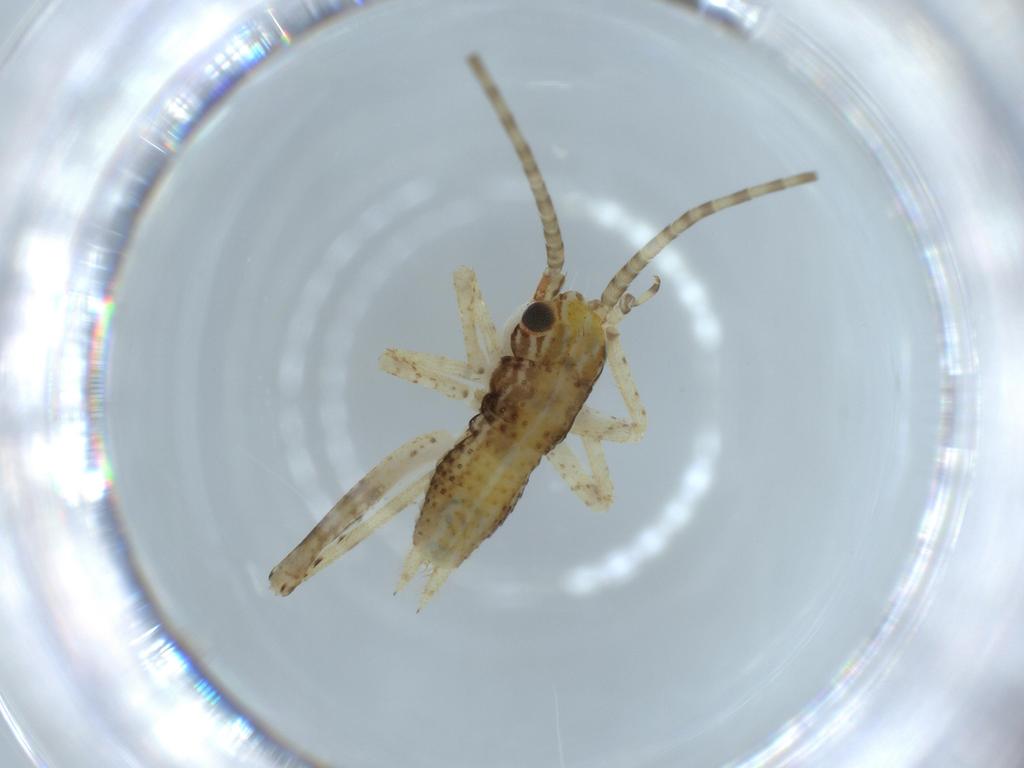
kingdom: Animalia
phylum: Arthropoda
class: Insecta
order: Orthoptera
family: Gryllidae
